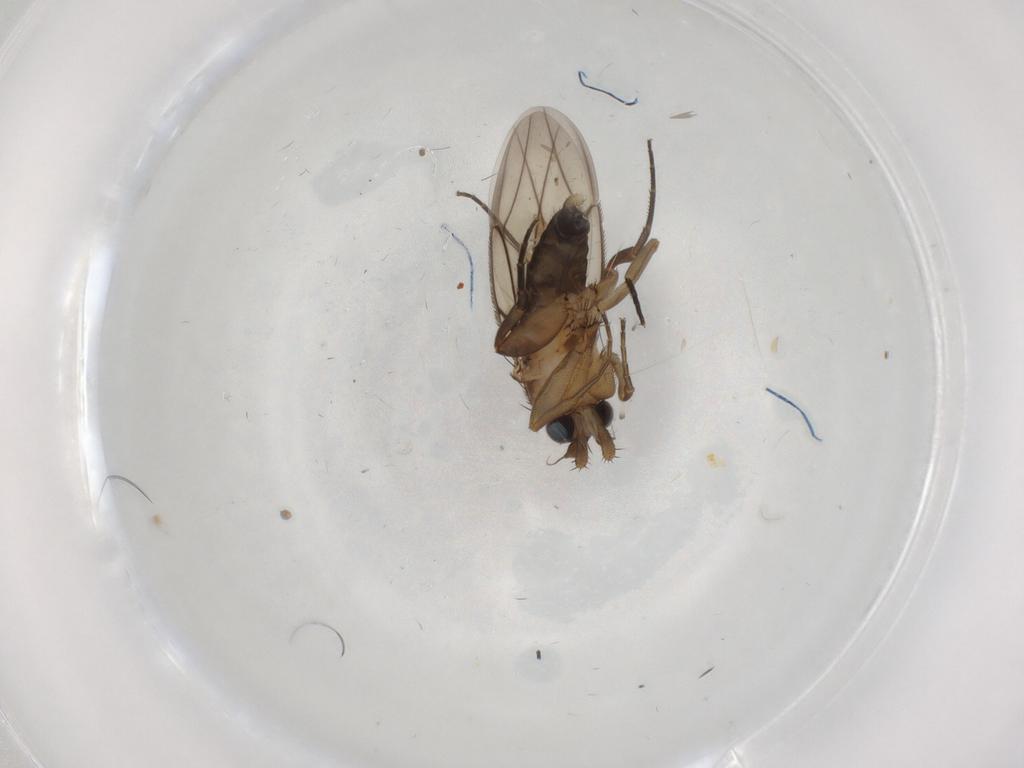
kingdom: Animalia
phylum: Arthropoda
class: Insecta
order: Diptera
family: Phoridae
